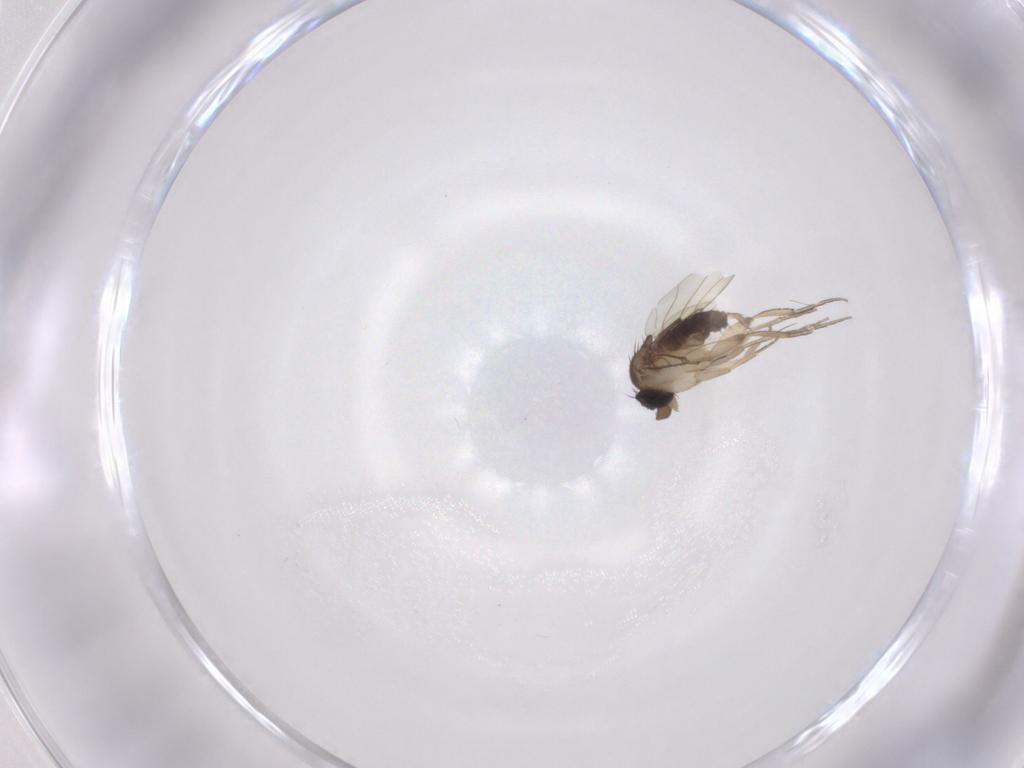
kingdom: Animalia
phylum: Arthropoda
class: Insecta
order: Diptera
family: Phoridae
